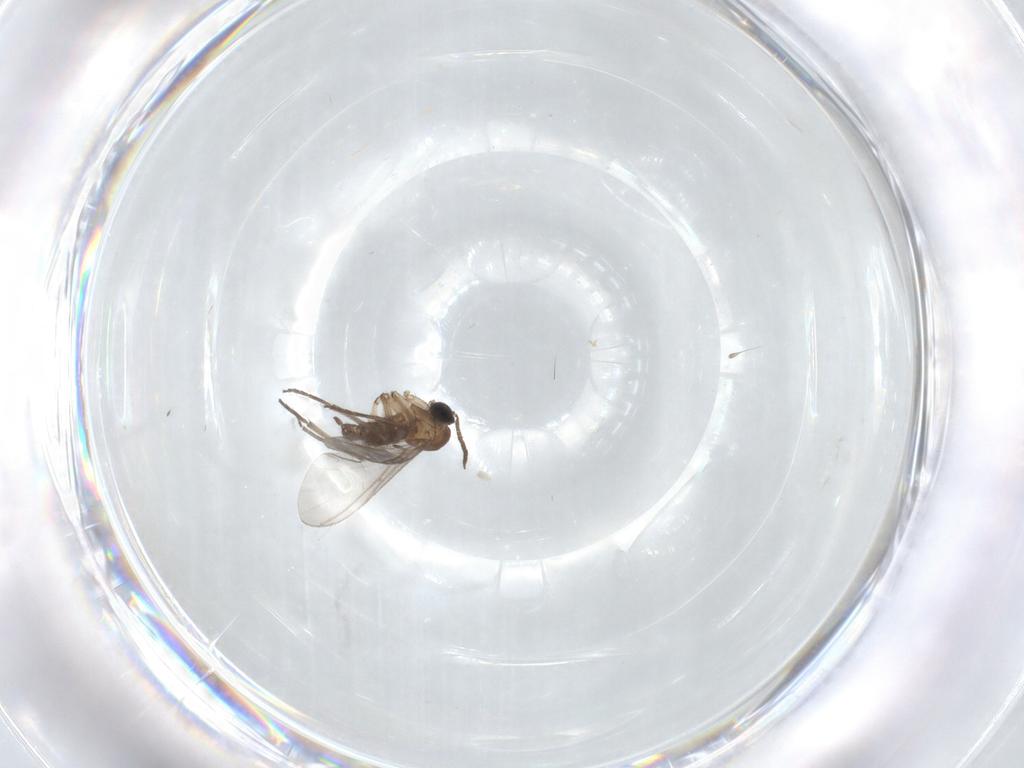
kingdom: Animalia
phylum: Arthropoda
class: Insecta
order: Diptera
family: Sciaridae
